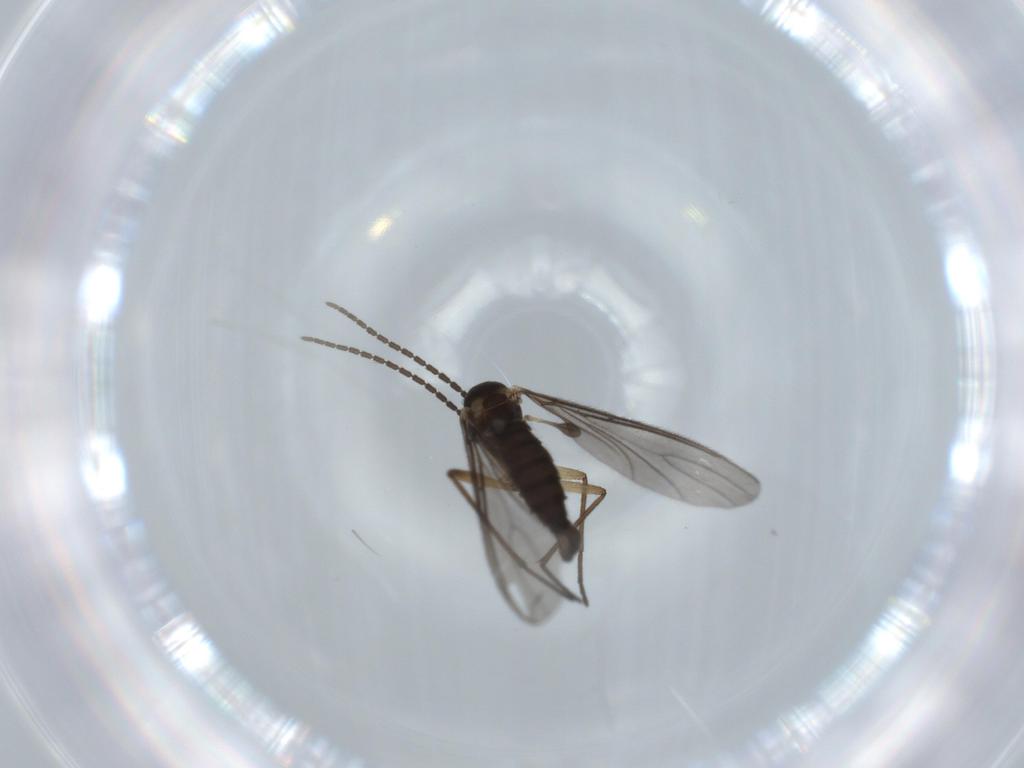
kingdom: Animalia
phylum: Arthropoda
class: Insecta
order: Diptera
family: Sciaridae
